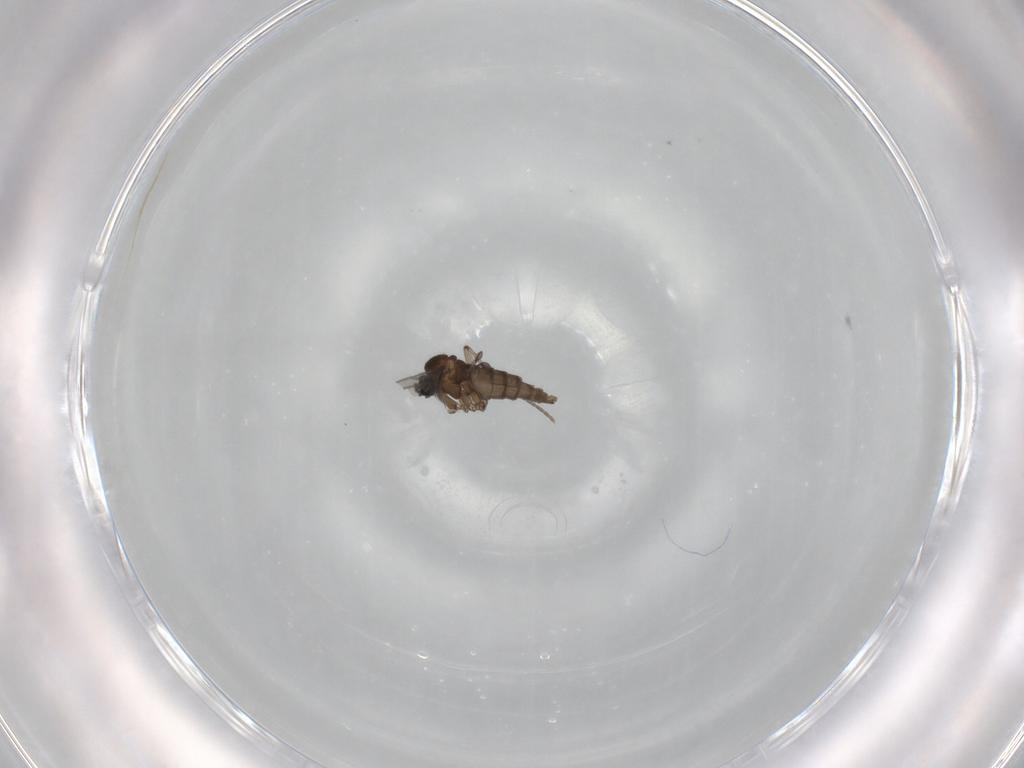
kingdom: Animalia
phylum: Arthropoda
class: Insecta
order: Diptera
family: Sciaridae
